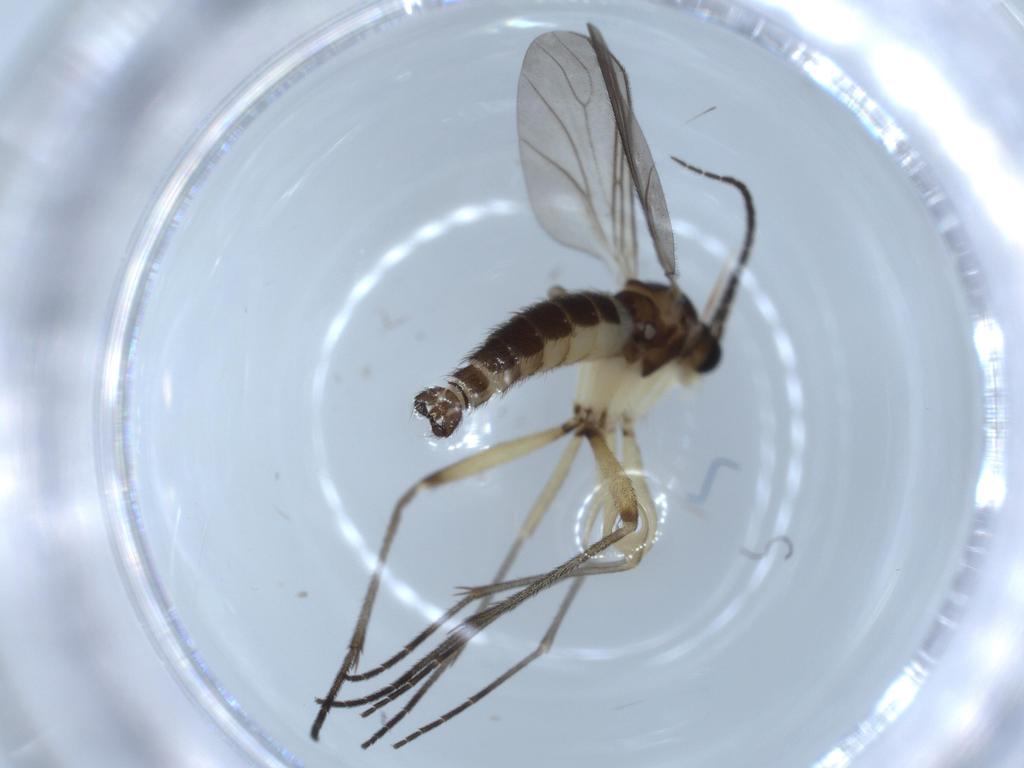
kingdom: Animalia
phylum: Arthropoda
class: Insecta
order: Diptera
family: Sciaridae
